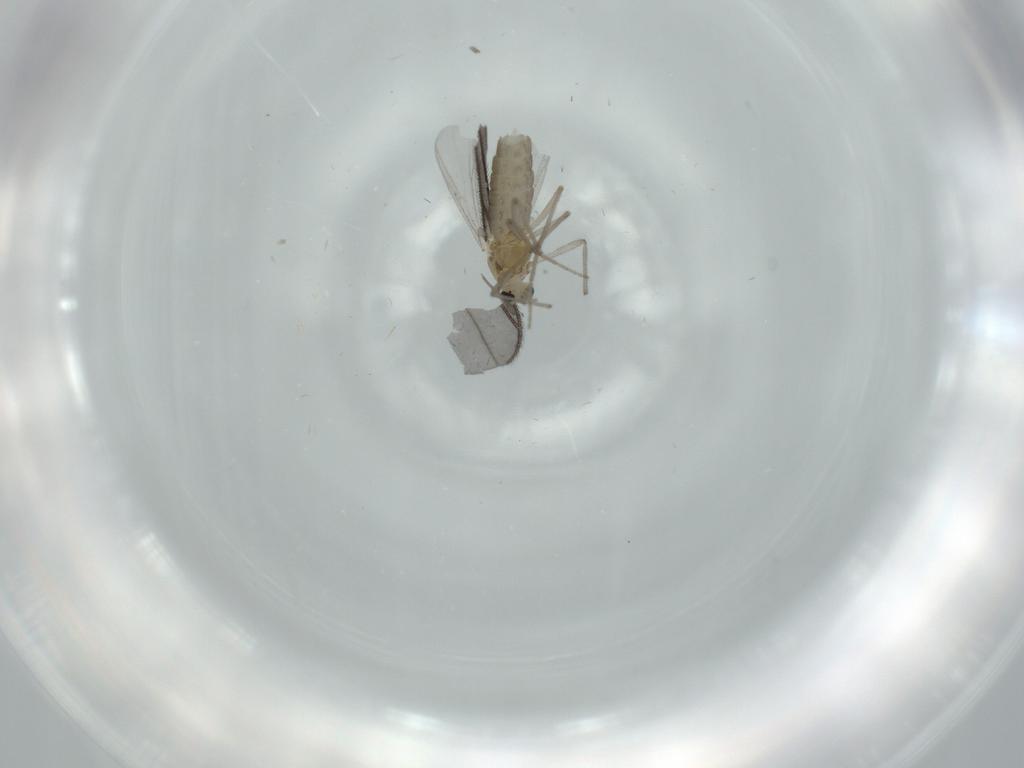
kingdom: Animalia
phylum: Arthropoda
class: Insecta
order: Diptera
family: Chironomidae
